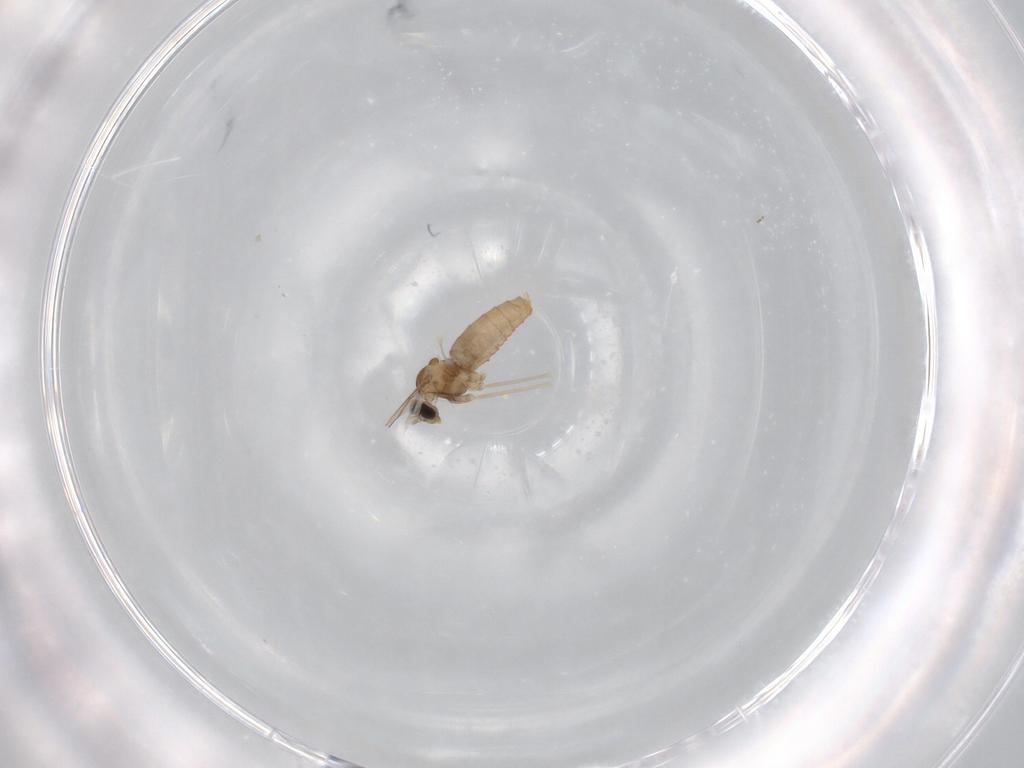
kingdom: Animalia
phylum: Arthropoda
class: Insecta
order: Diptera
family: Cecidomyiidae
